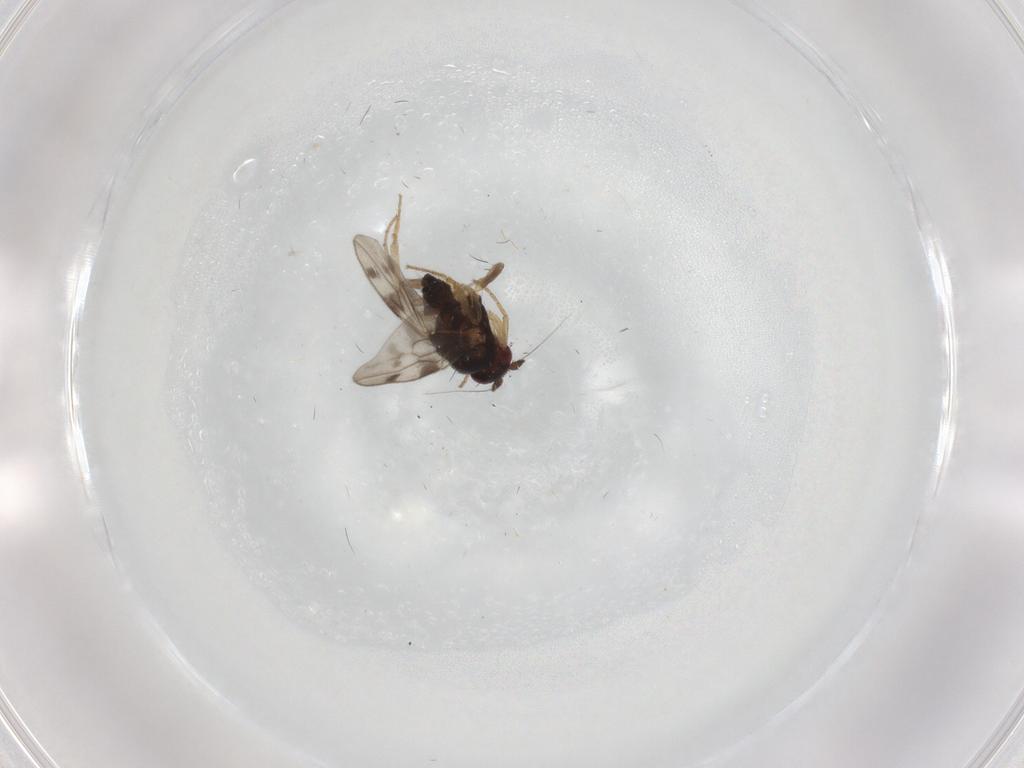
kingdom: Animalia
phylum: Arthropoda
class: Insecta
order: Diptera
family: Sphaeroceridae
